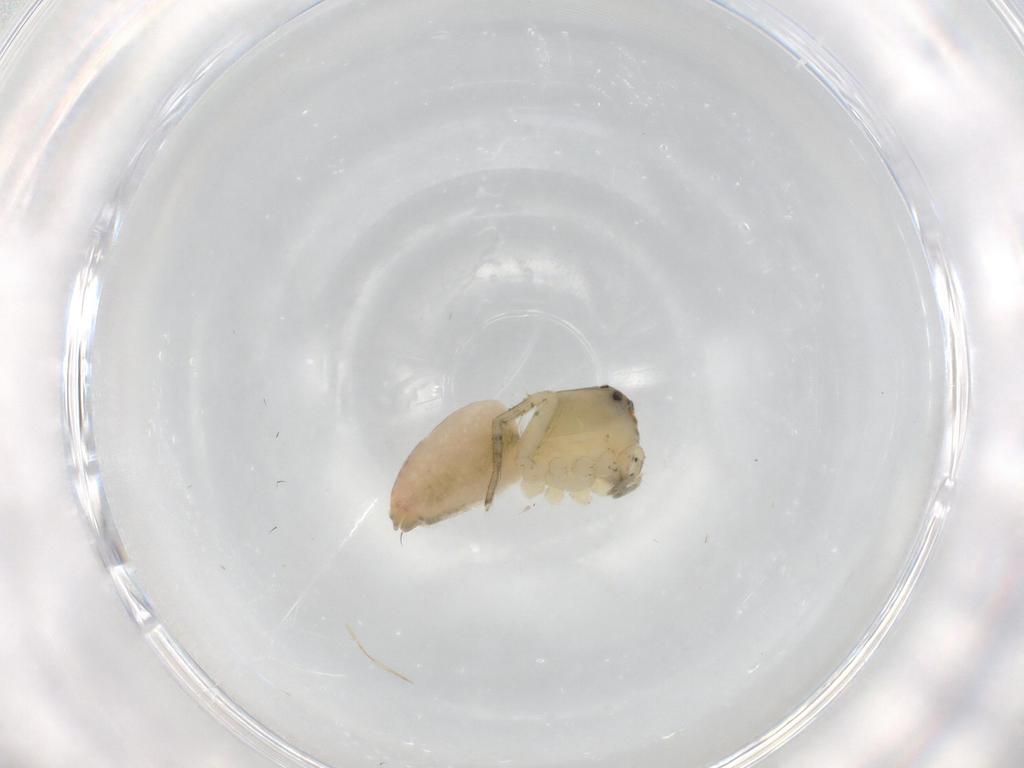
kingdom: Animalia
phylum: Arthropoda
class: Arachnida
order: Araneae
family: Oxyopidae
